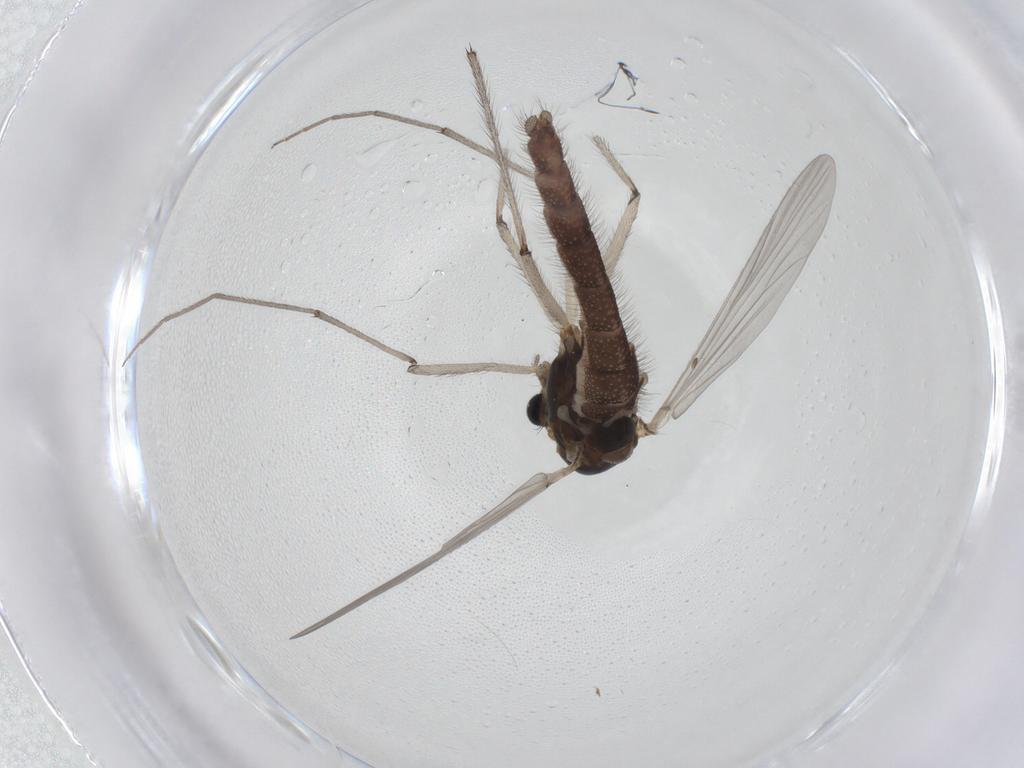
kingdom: Animalia
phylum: Arthropoda
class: Insecta
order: Diptera
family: Chironomidae
